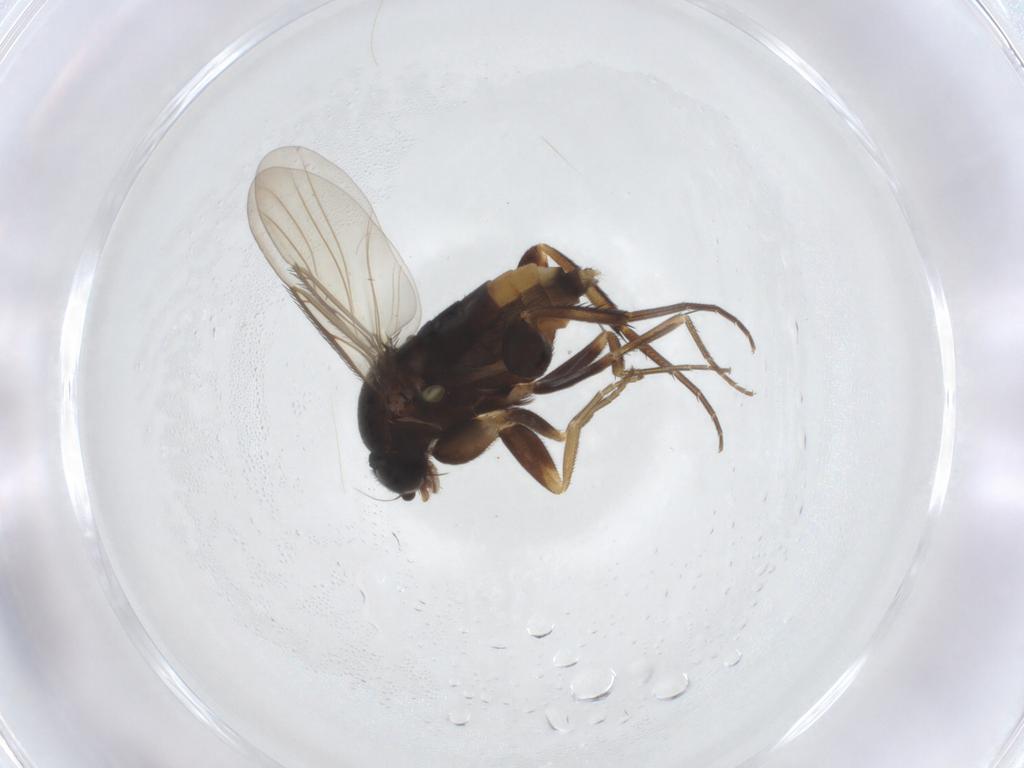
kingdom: Animalia
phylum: Arthropoda
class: Insecta
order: Diptera
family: Phoridae
